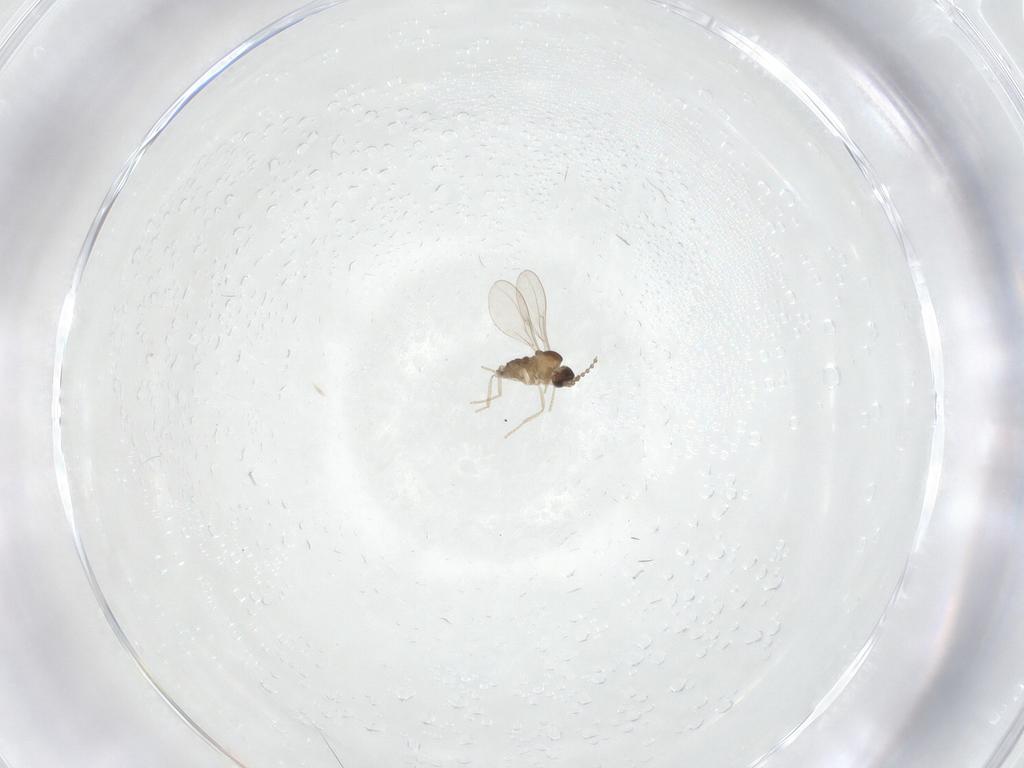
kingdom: Animalia
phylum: Arthropoda
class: Insecta
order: Diptera
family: Cecidomyiidae
